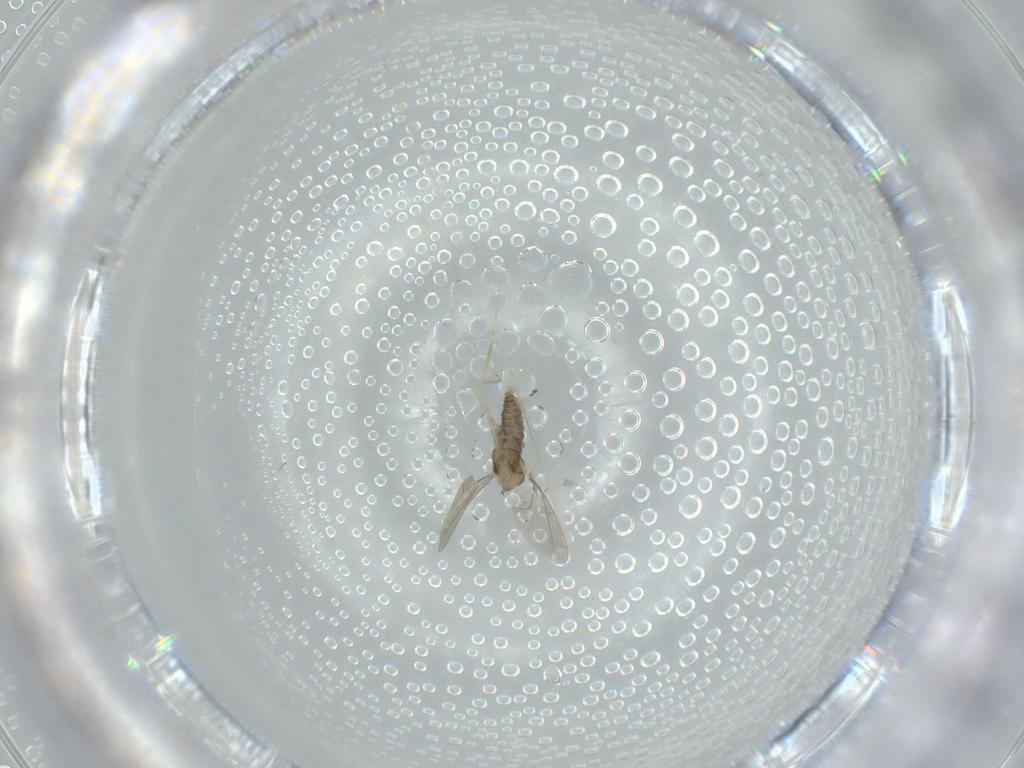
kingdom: Animalia
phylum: Arthropoda
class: Insecta
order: Diptera
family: Cecidomyiidae
